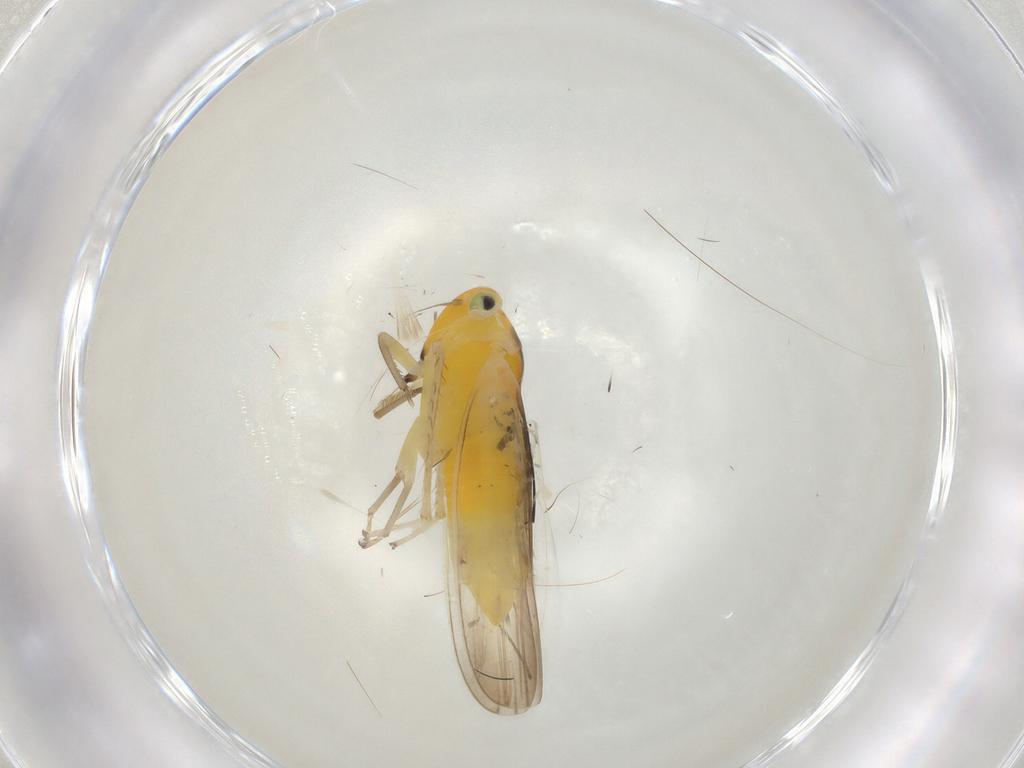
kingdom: Animalia
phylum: Arthropoda
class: Insecta
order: Hemiptera
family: Cicadellidae
